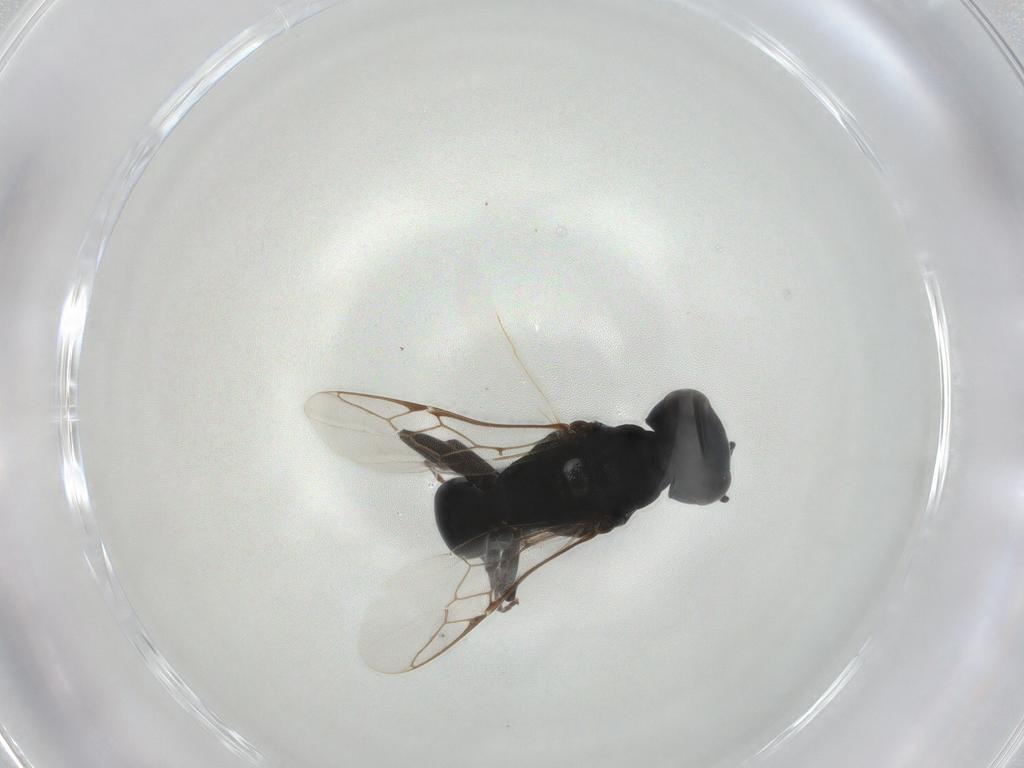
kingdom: Animalia
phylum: Arthropoda
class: Insecta
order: Hymenoptera
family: Crabronidae
